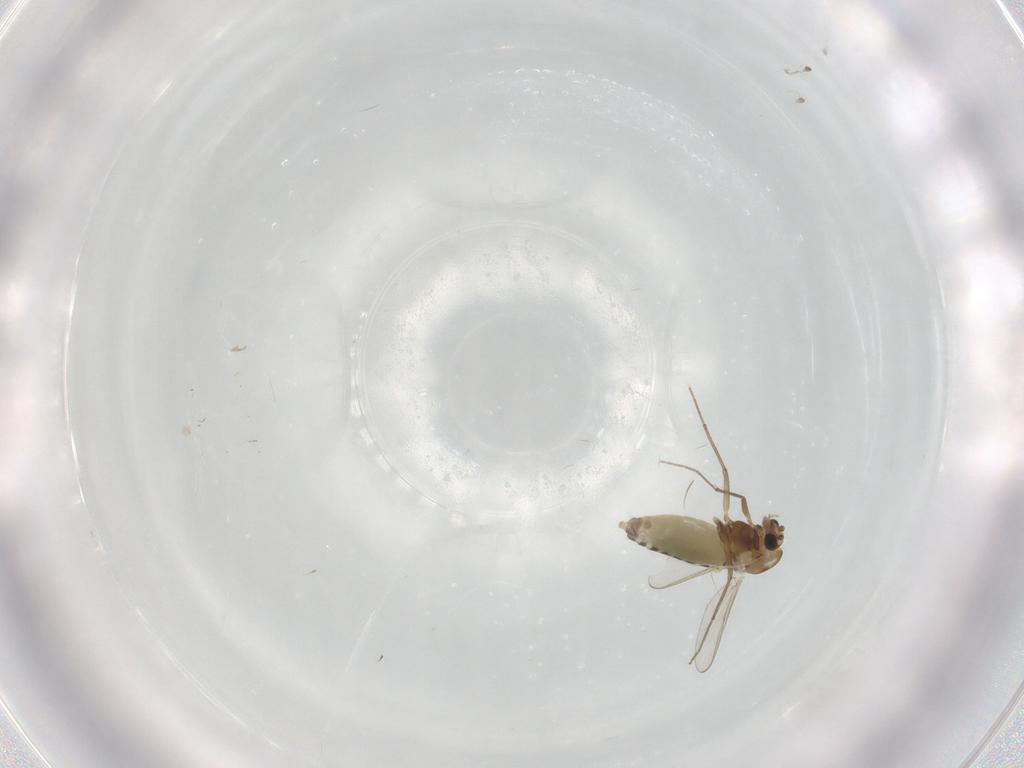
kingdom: Animalia
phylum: Arthropoda
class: Insecta
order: Diptera
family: Chironomidae
